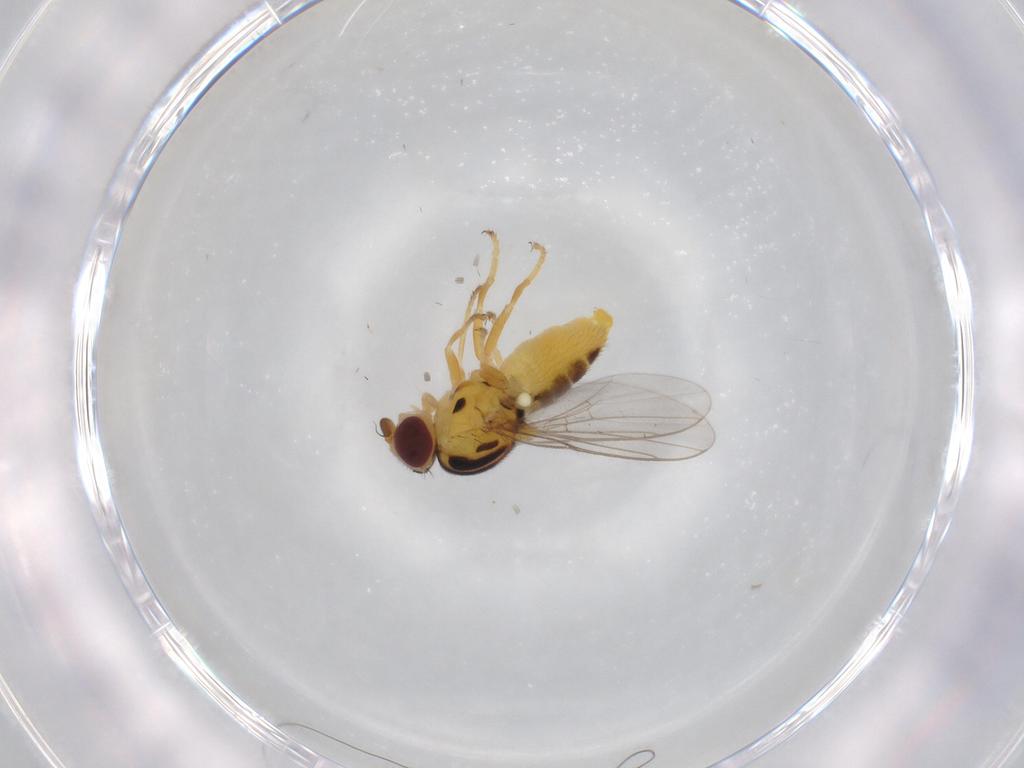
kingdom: Animalia
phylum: Arthropoda
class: Insecta
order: Diptera
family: Chloropidae
